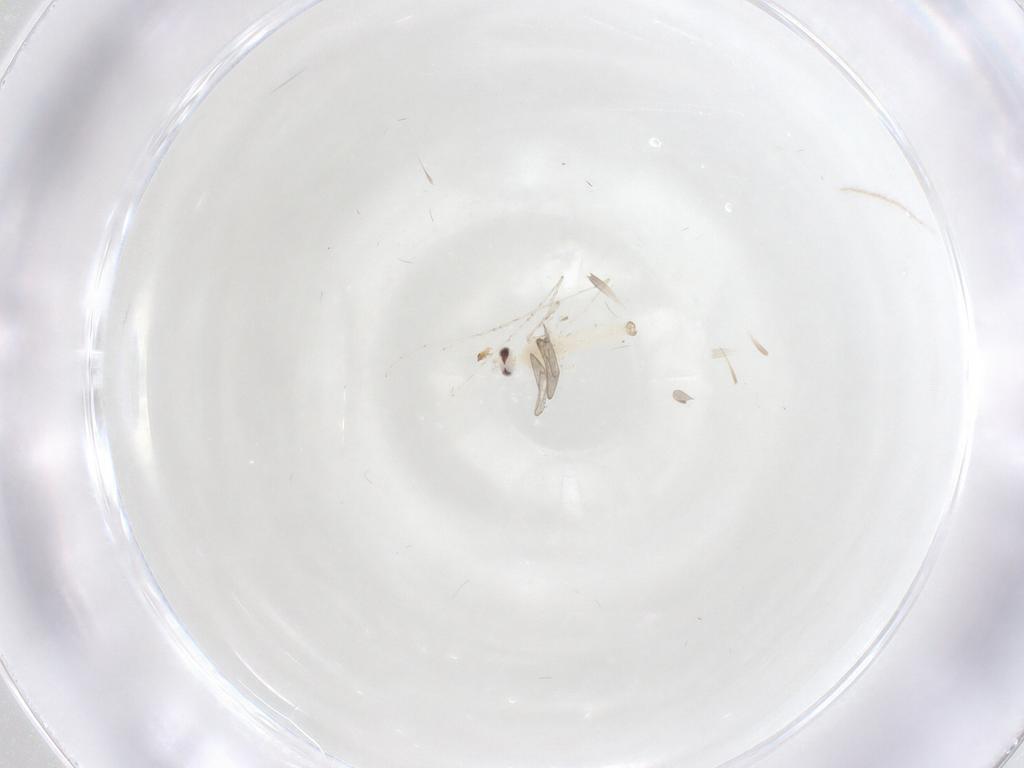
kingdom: Animalia
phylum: Arthropoda
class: Insecta
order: Diptera
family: Cecidomyiidae
